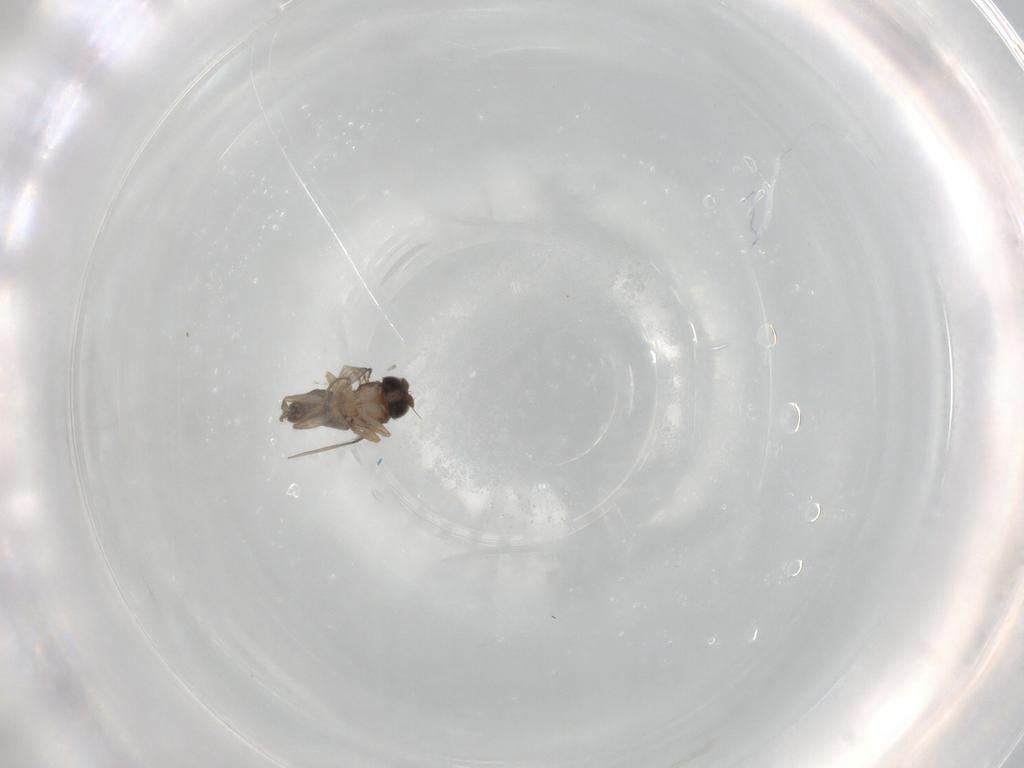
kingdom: Animalia
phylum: Arthropoda
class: Insecta
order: Diptera
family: Phoridae
